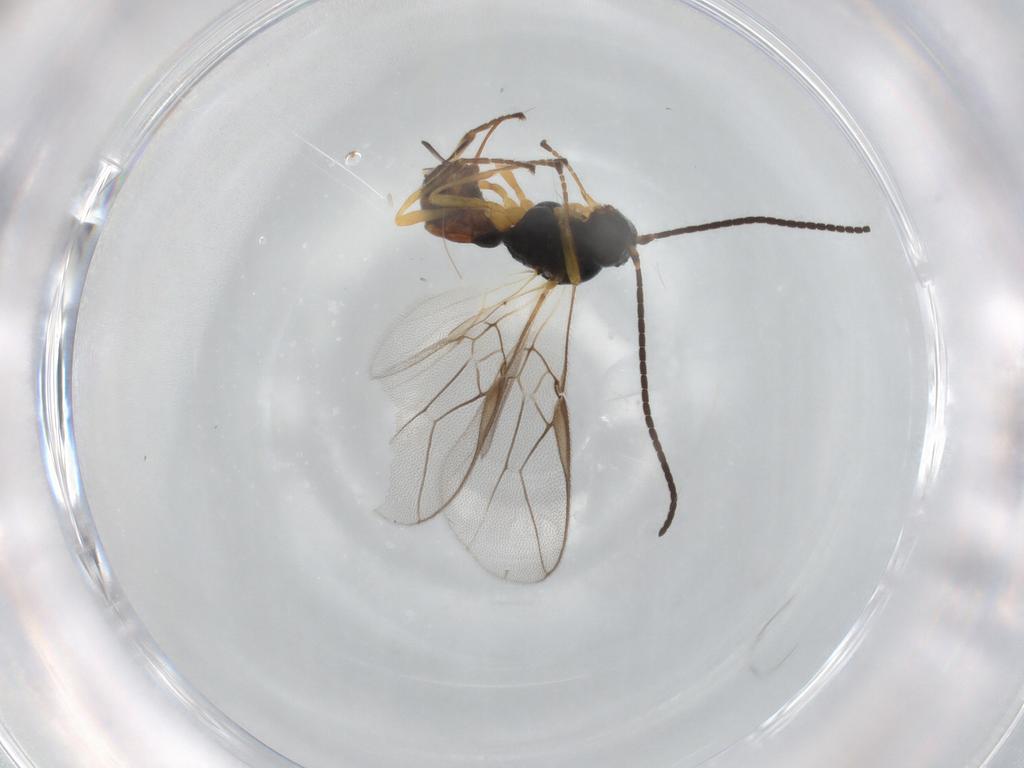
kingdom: Animalia
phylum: Arthropoda
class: Insecta
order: Hymenoptera
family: Braconidae
